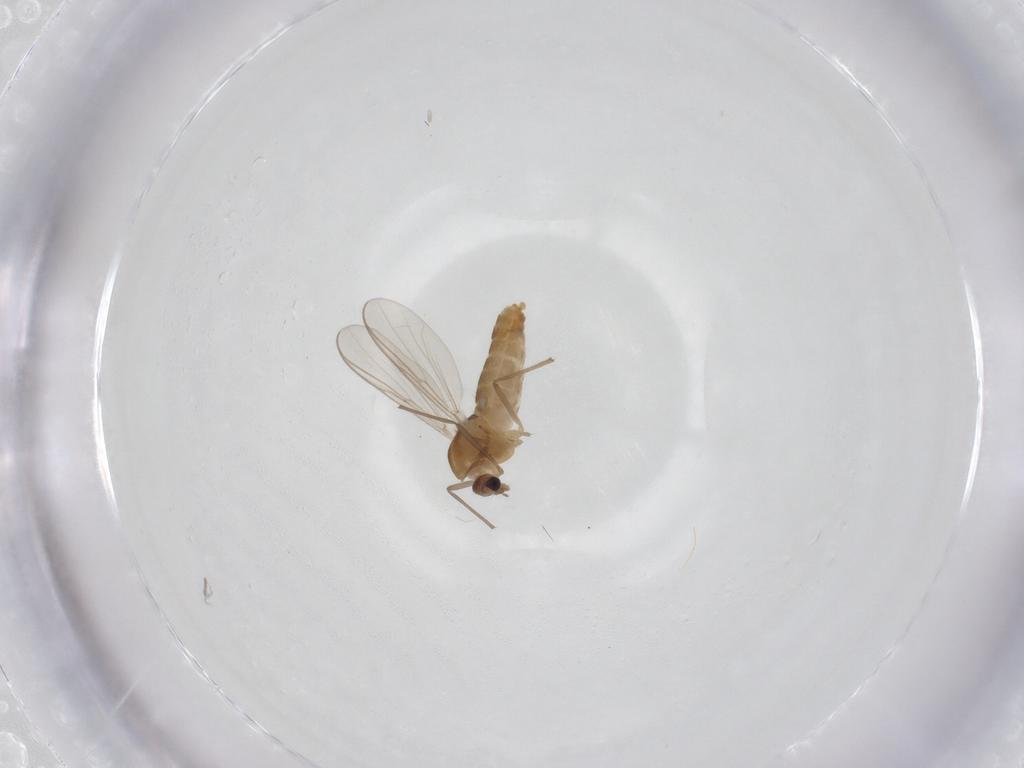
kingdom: Animalia
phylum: Arthropoda
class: Insecta
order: Diptera
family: Chironomidae
